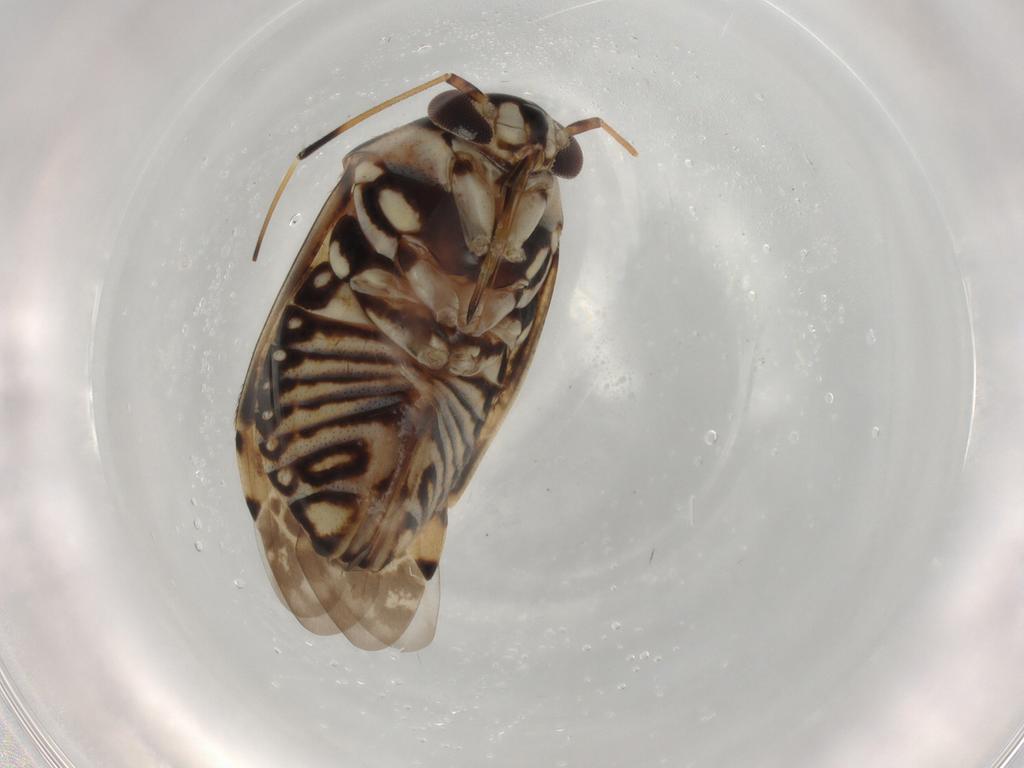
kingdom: Animalia
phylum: Arthropoda
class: Insecta
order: Hemiptera
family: Miridae
